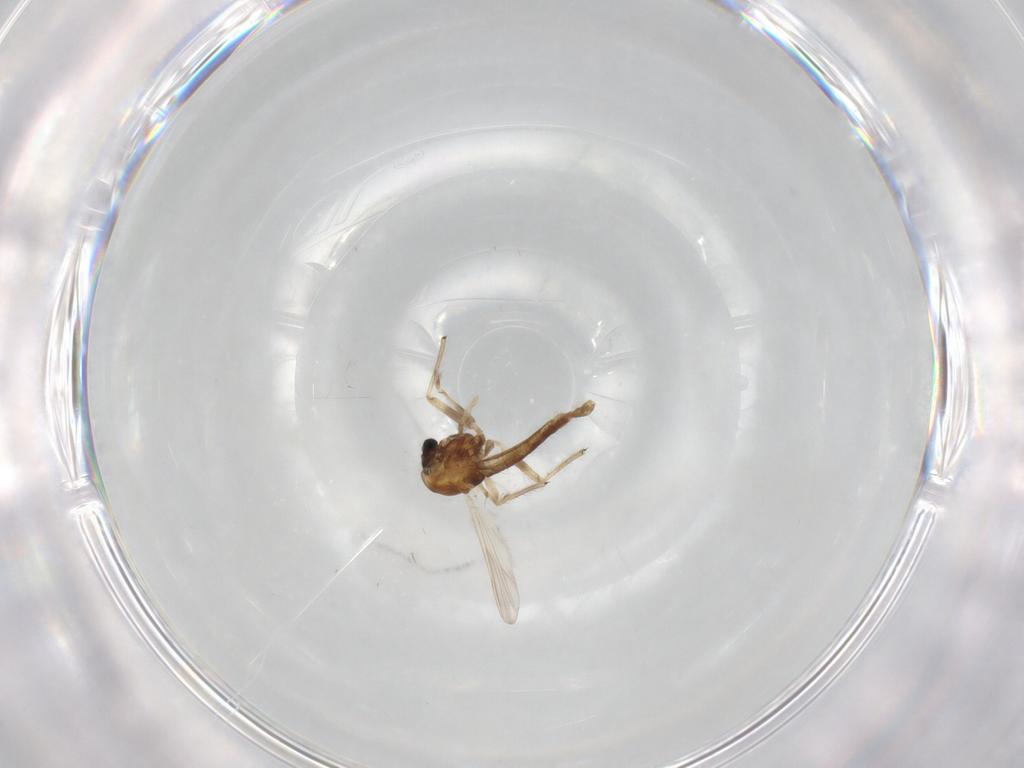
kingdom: Animalia
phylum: Arthropoda
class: Insecta
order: Diptera
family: Chironomidae
